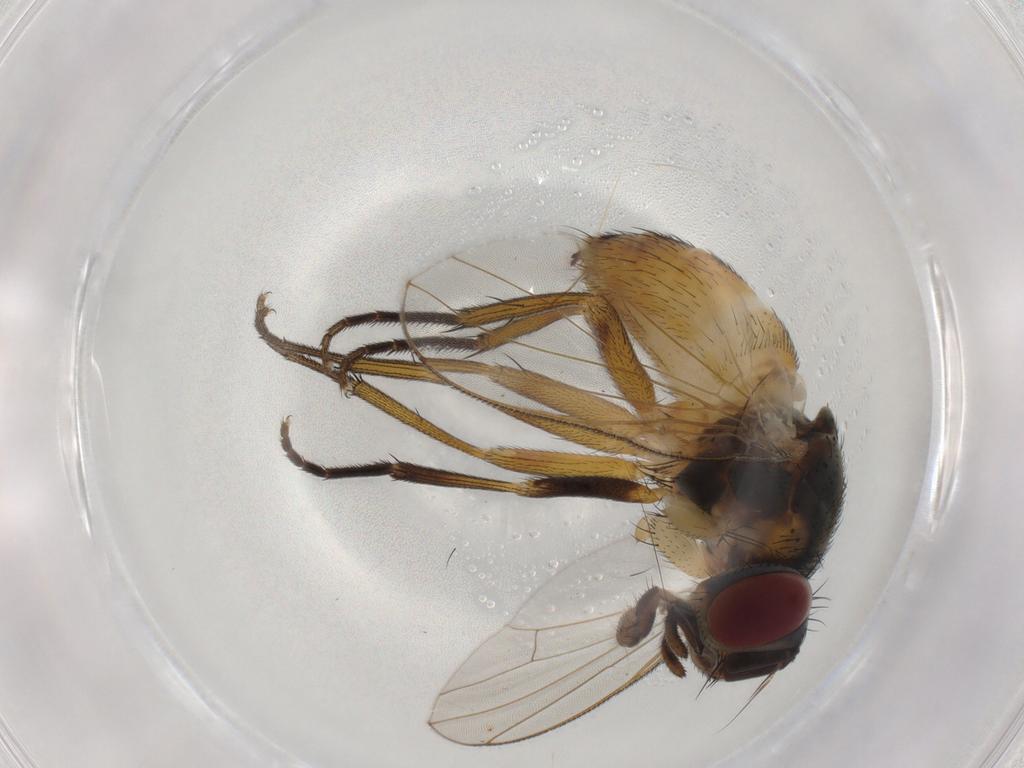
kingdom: Animalia
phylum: Arthropoda
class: Insecta
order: Diptera
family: Muscidae
